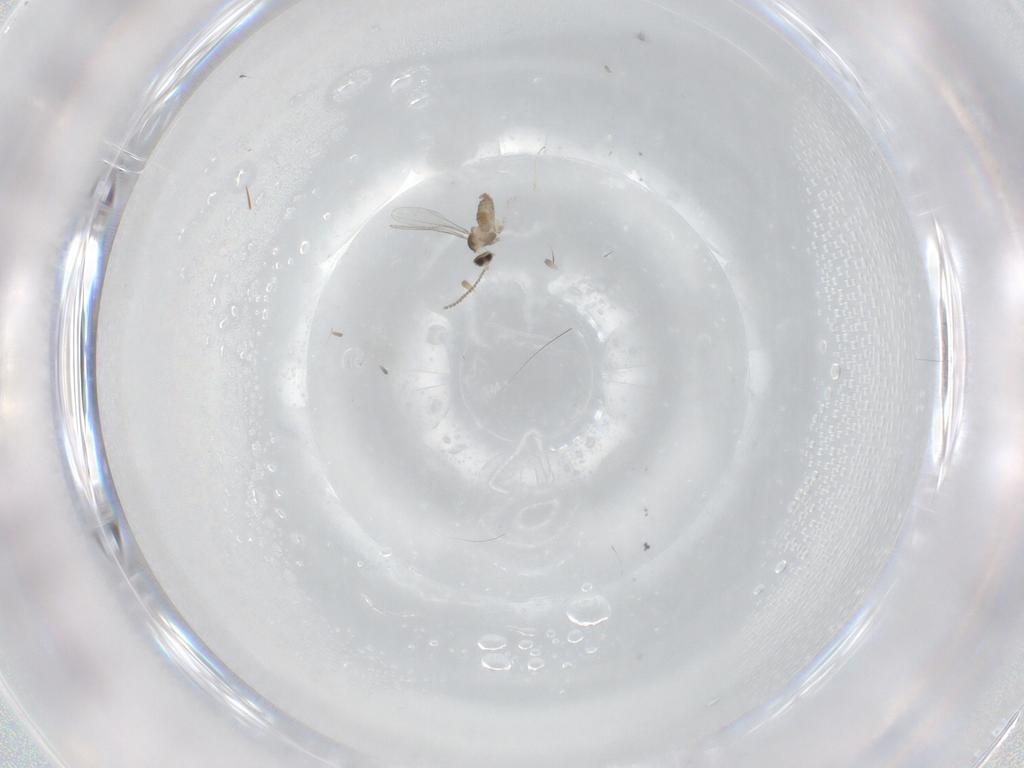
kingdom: Animalia
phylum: Arthropoda
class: Insecta
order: Diptera
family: Cecidomyiidae
